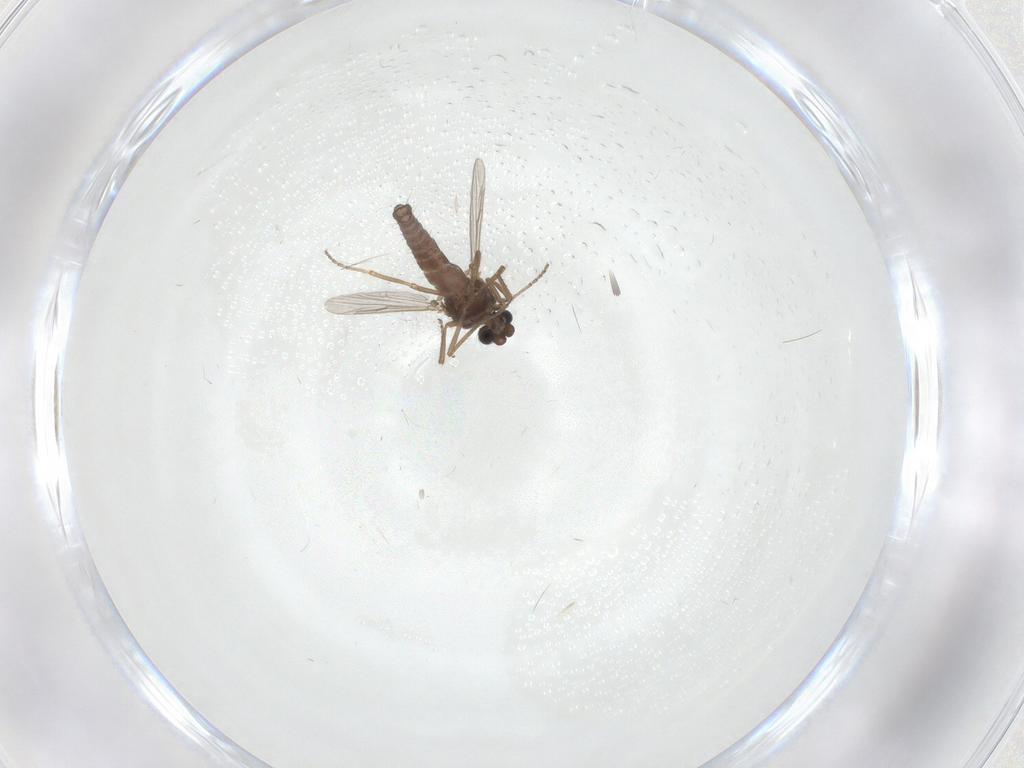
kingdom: Animalia
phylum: Arthropoda
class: Insecta
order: Diptera
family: Ceratopogonidae
